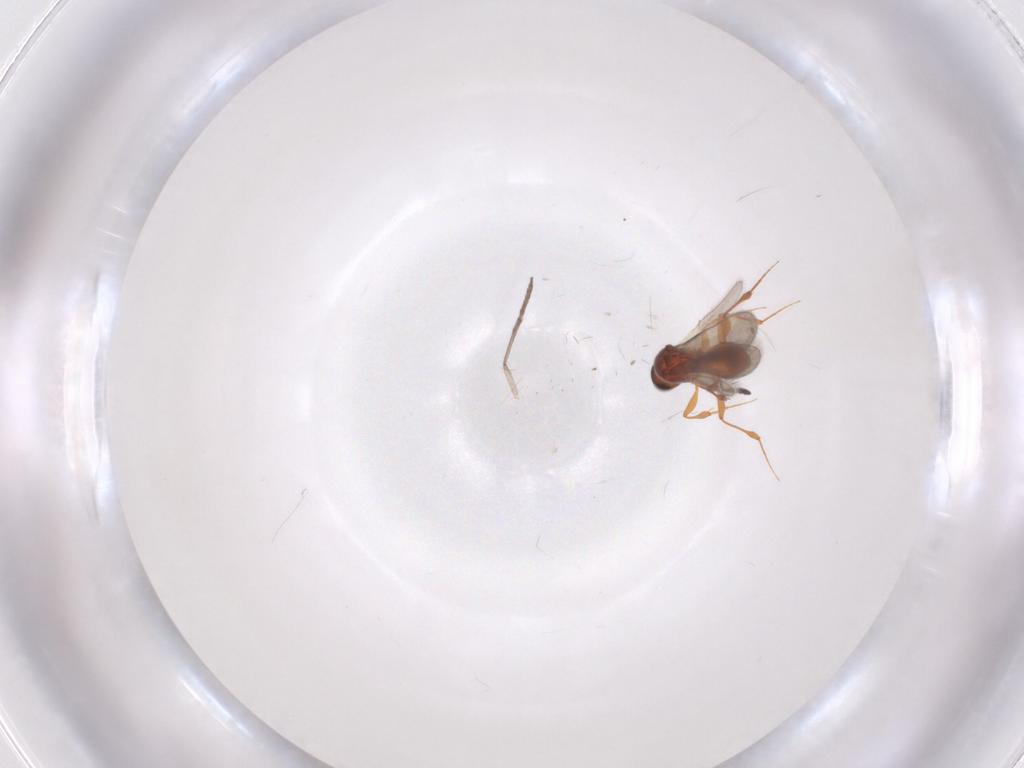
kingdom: Animalia
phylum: Arthropoda
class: Insecta
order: Hymenoptera
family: Platygastridae
